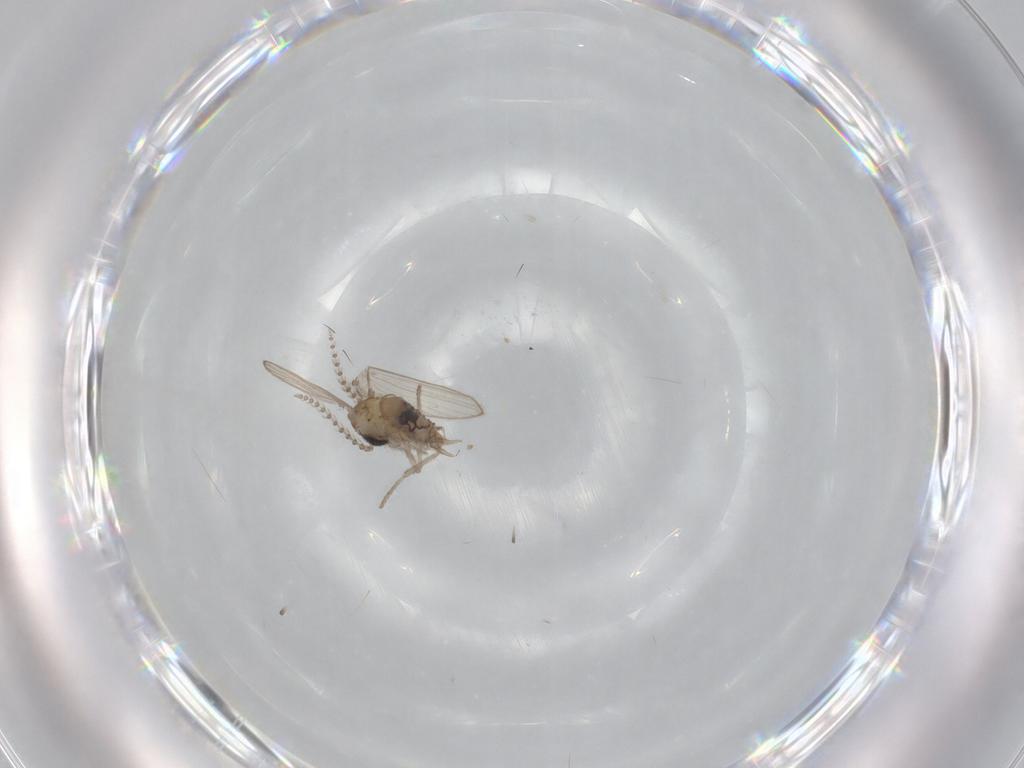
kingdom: Animalia
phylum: Arthropoda
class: Insecta
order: Diptera
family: Psychodidae
